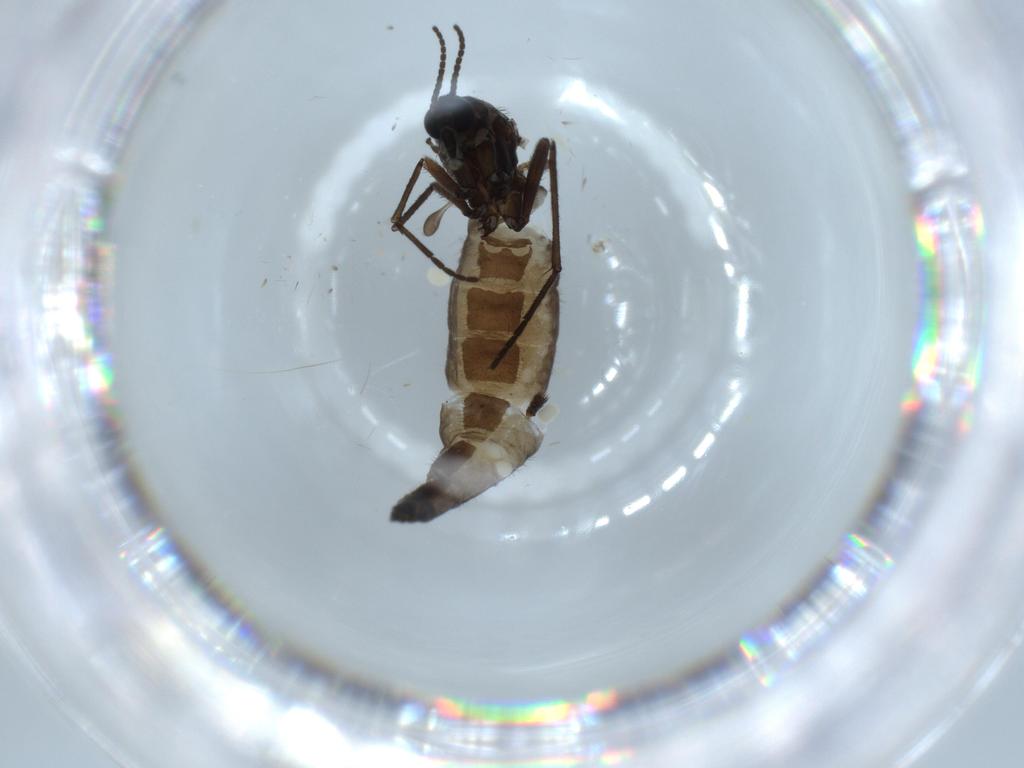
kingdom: Animalia
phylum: Arthropoda
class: Insecta
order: Diptera
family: Sciaridae
